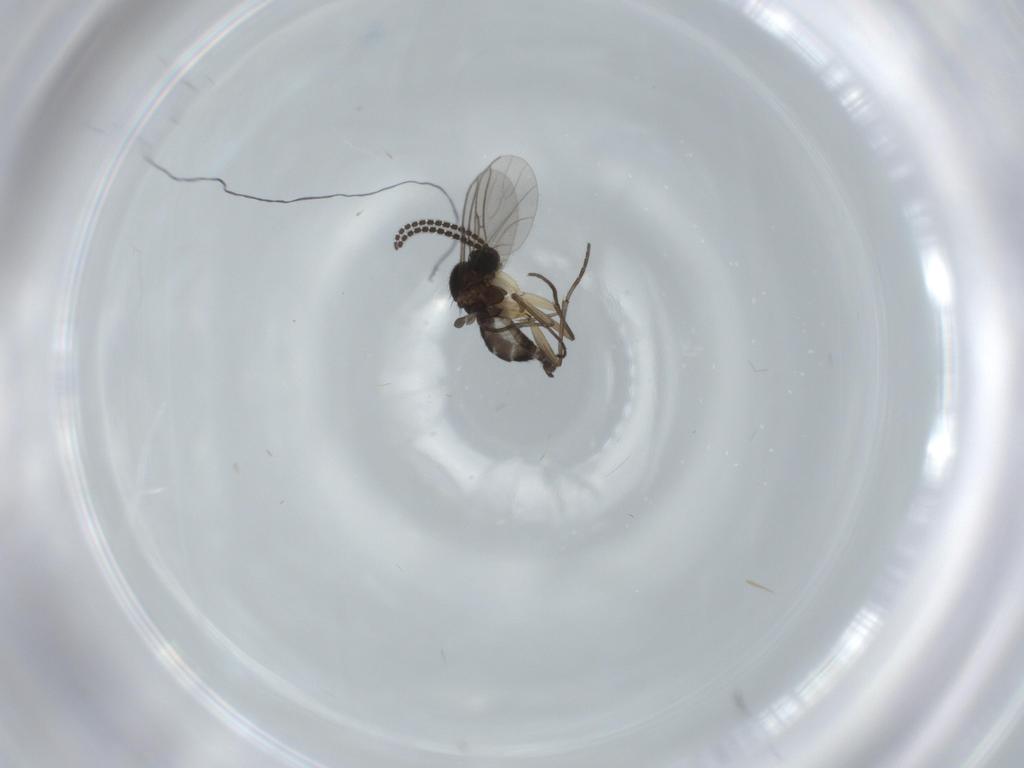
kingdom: Animalia
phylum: Arthropoda
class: Insecta
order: Diptera
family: Sciaridae
